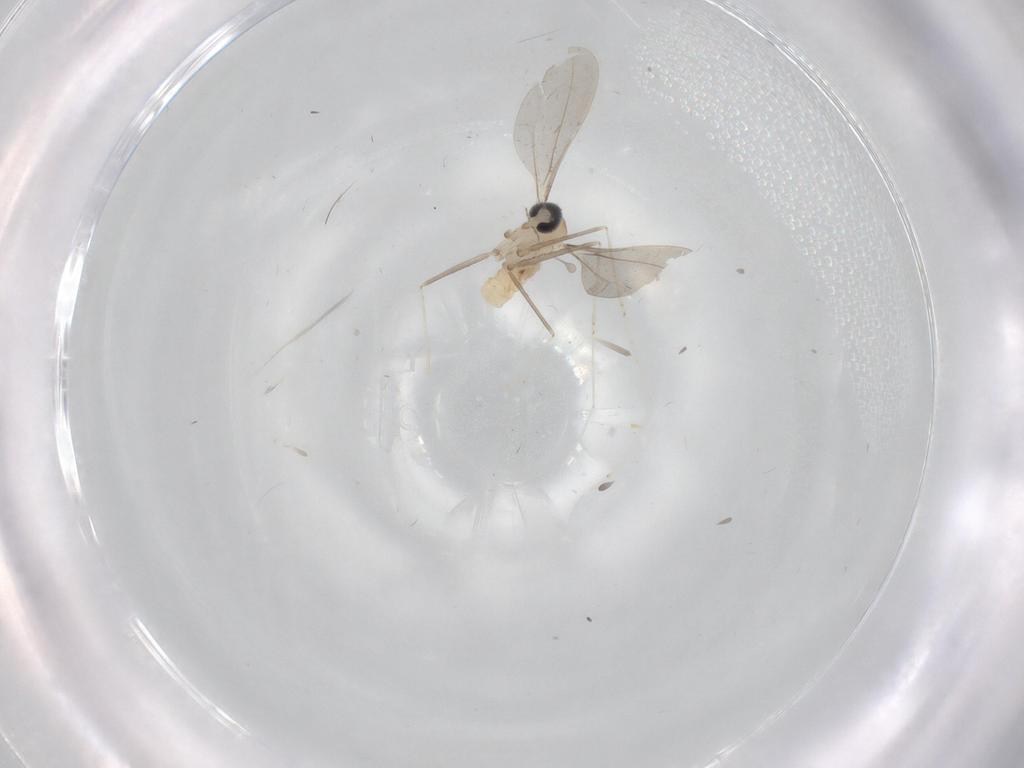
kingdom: Animalia
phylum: Arthropoda
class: Insecta
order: Diptera
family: Cecidomyiidae
